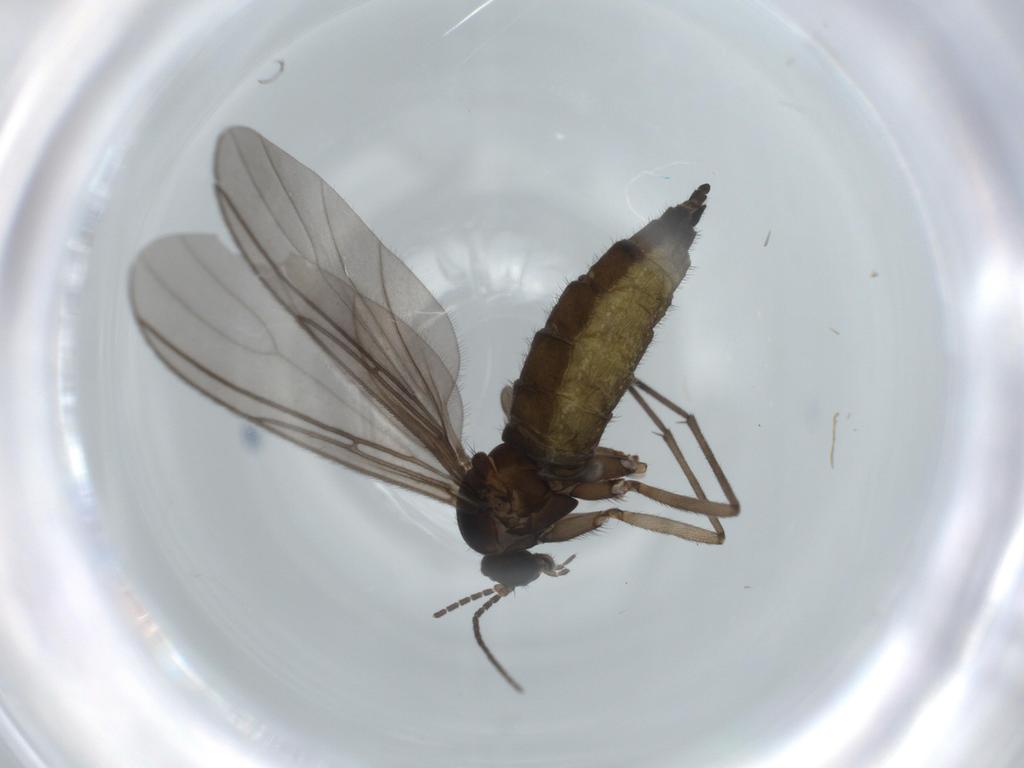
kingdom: Animalia
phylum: Arthropoda
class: Insecta
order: Diptera
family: Sciaridae
